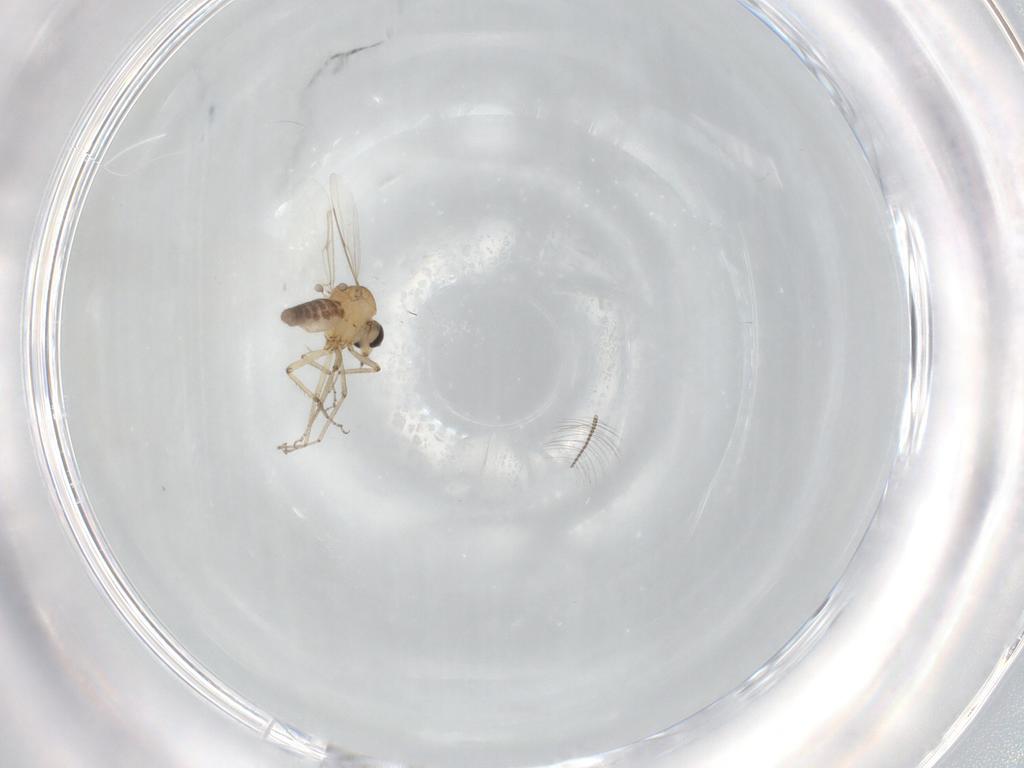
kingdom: Animalia
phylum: Arthropoda
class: Insecta
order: Diptera
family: Ceratopogonidae
